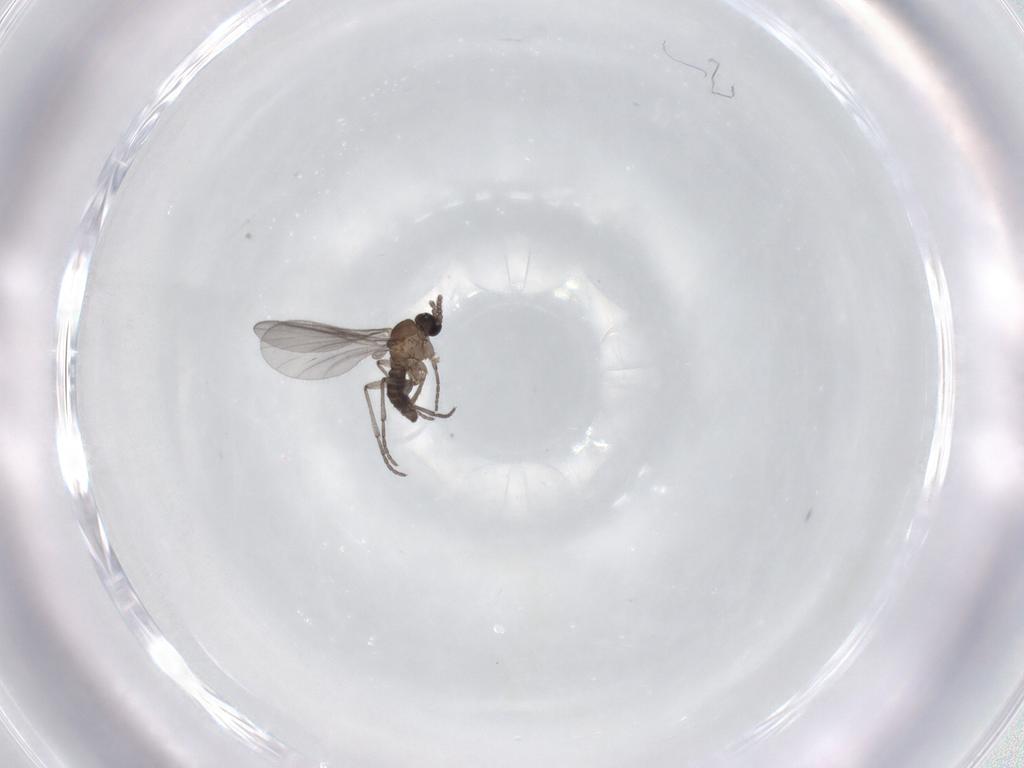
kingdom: Animalia
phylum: Arthropoda
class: Insecta
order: Diptera
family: Sciaridae
